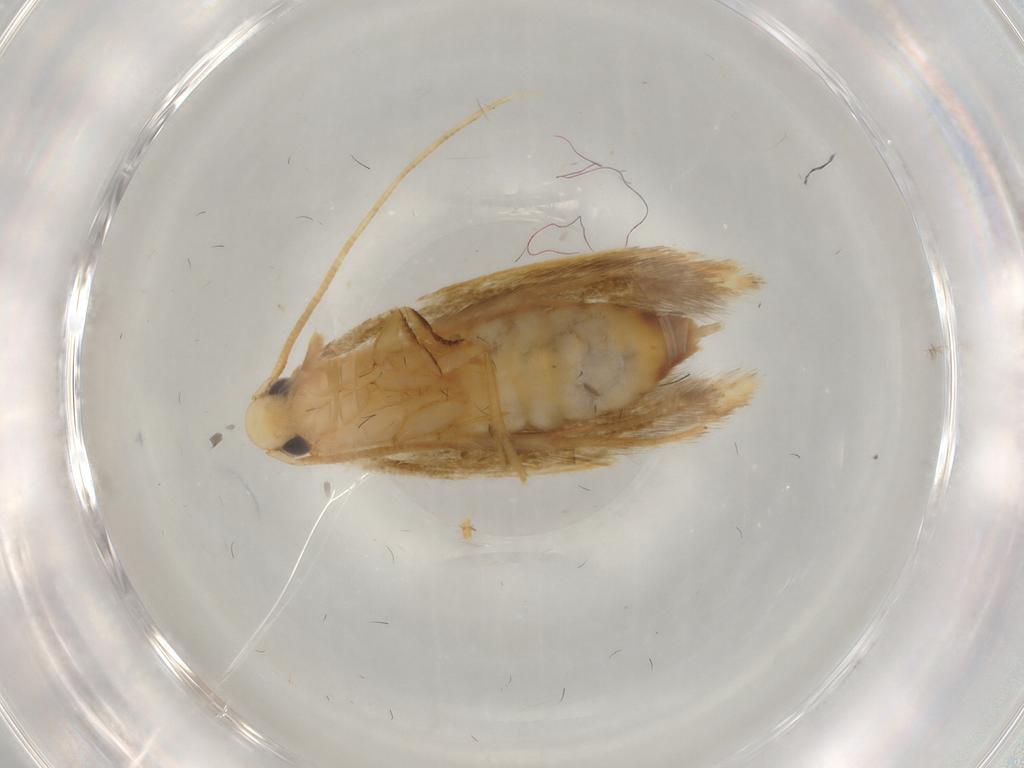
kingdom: Animalia
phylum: Arthropoda
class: Insecta
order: Lepidoptera
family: Tineidae
